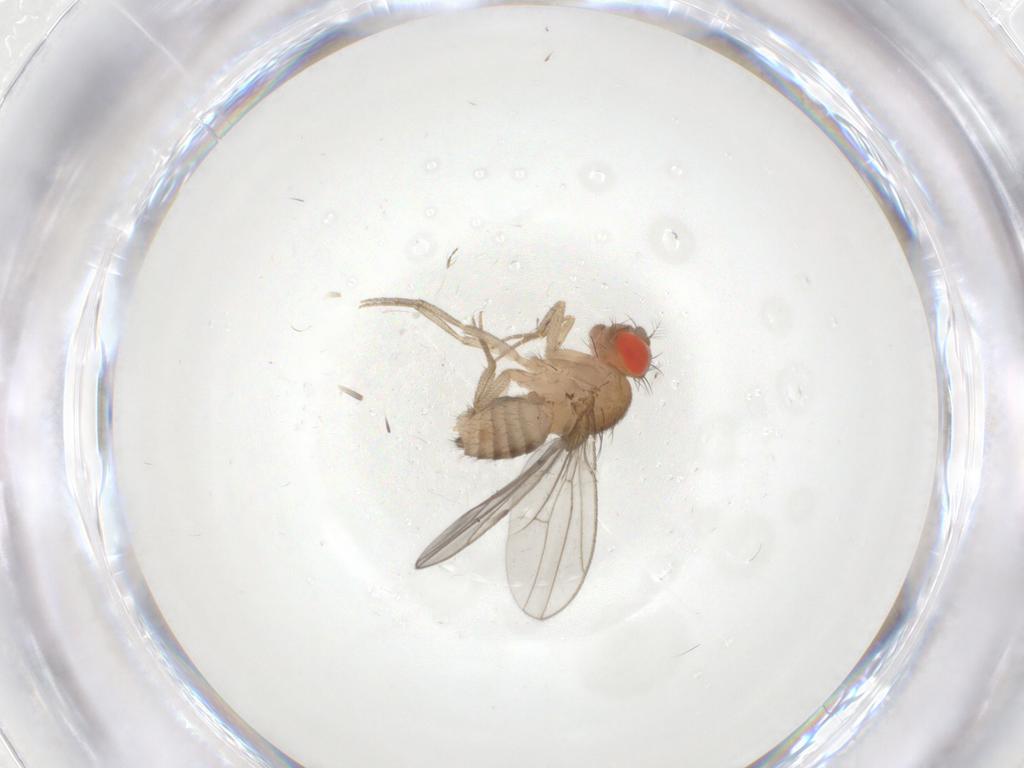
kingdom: Animalia
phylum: Arthropoda
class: Insecta
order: Diptera
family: Drosophilidae
